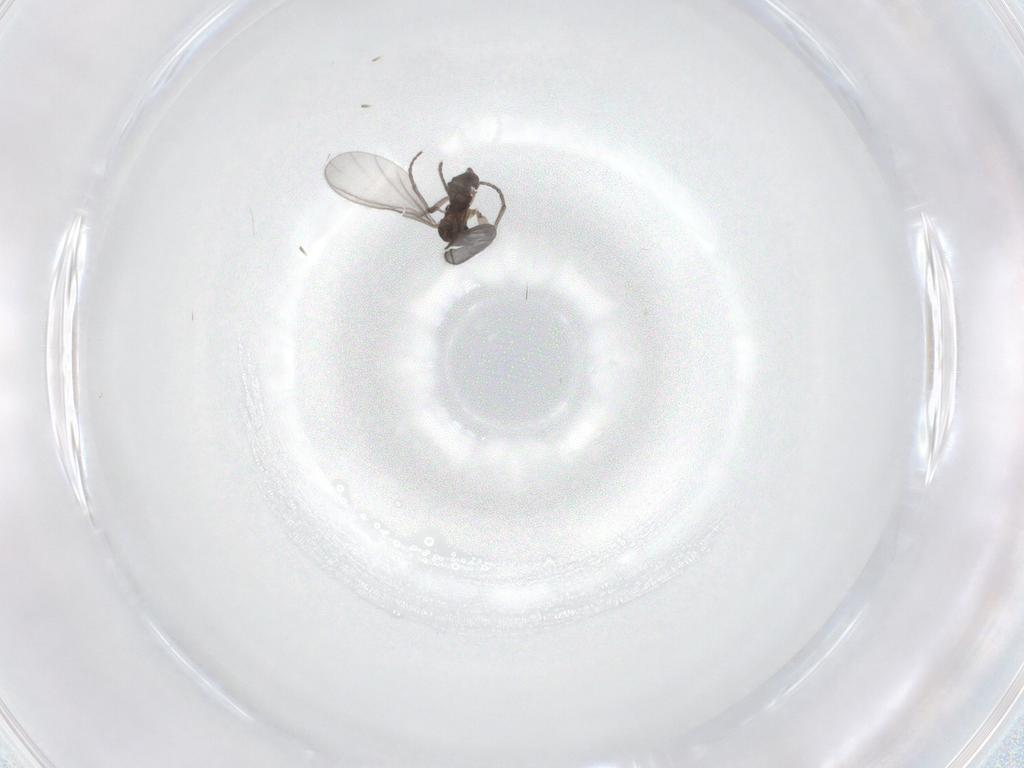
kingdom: Animalia
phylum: Arthropoda
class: Insecta
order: Diptera
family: Sciaridae
